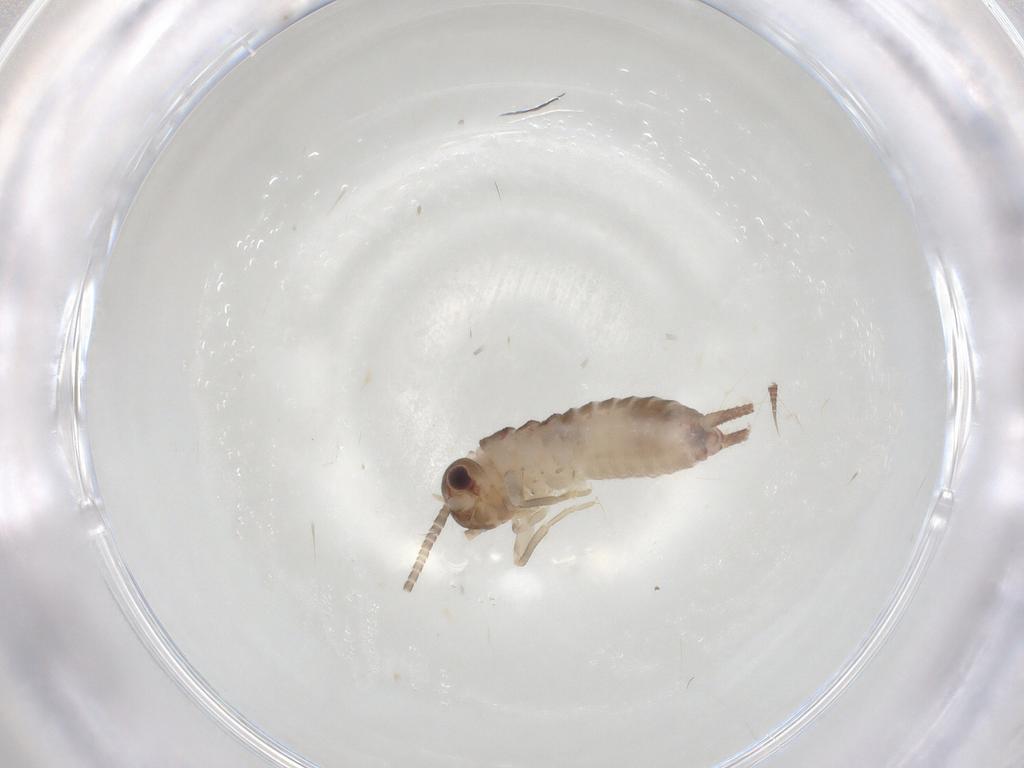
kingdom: Animalia
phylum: Arthropoda
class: Insecta
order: Orthoptera
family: Gryllidae
